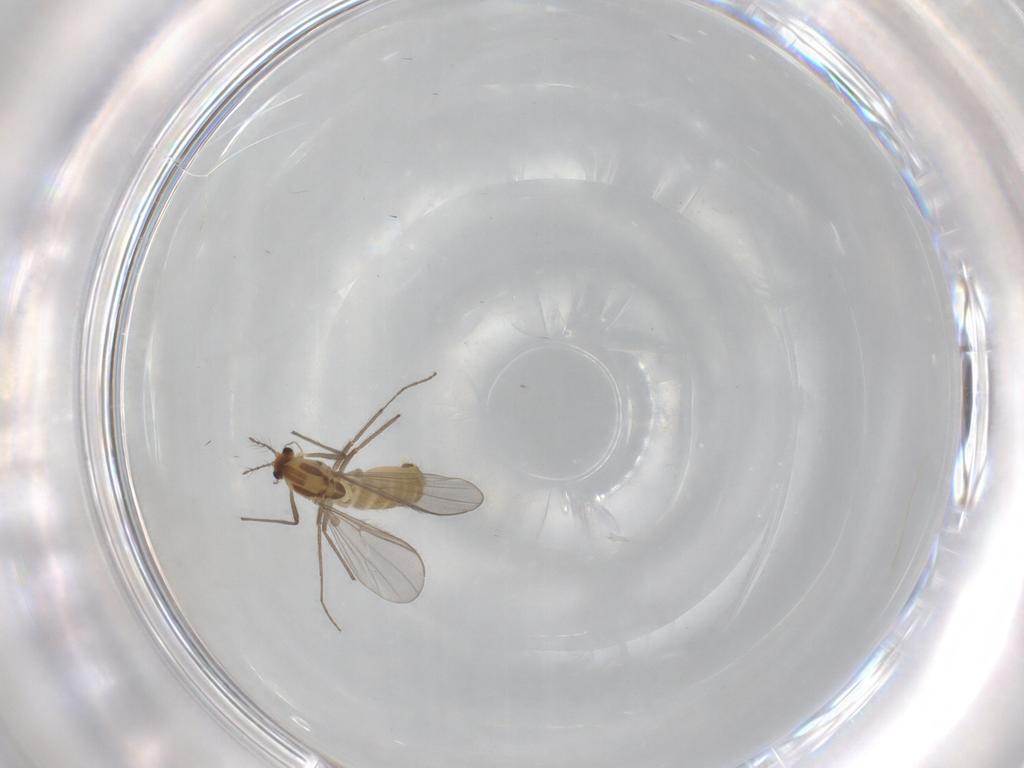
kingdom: Animalia
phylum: Arthropoda
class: Insecta
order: Diptera
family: Chironomidae
